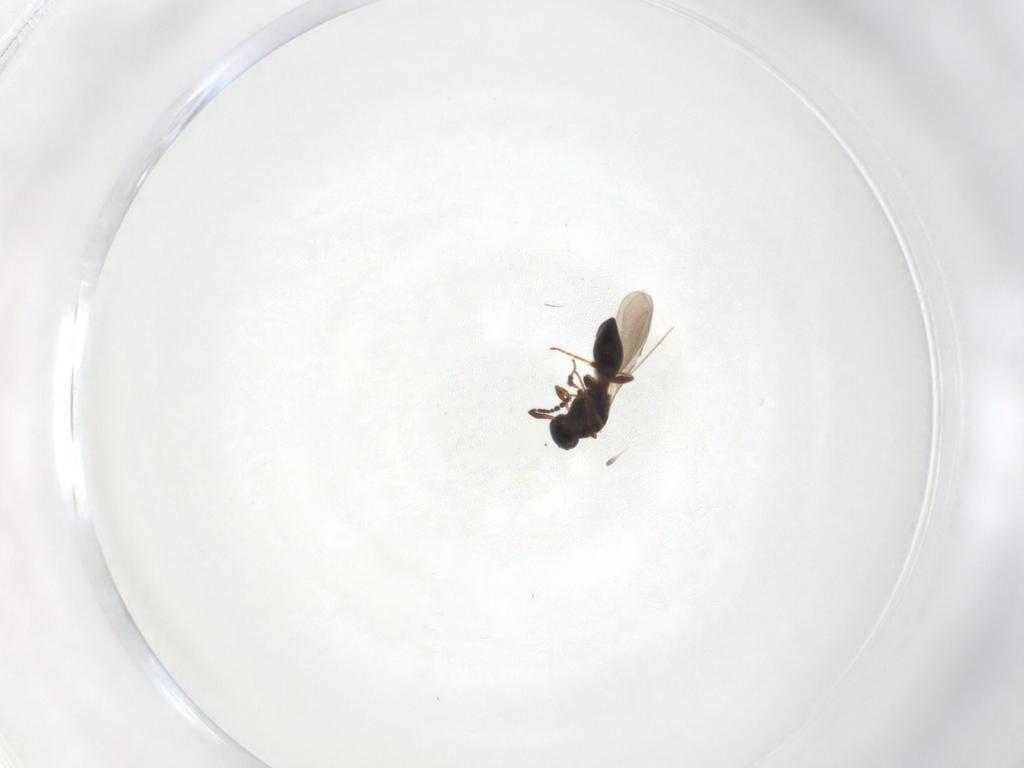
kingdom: Animalia
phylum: Arthropoda
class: Insecta
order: Hymenoptera
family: Platygastridae
